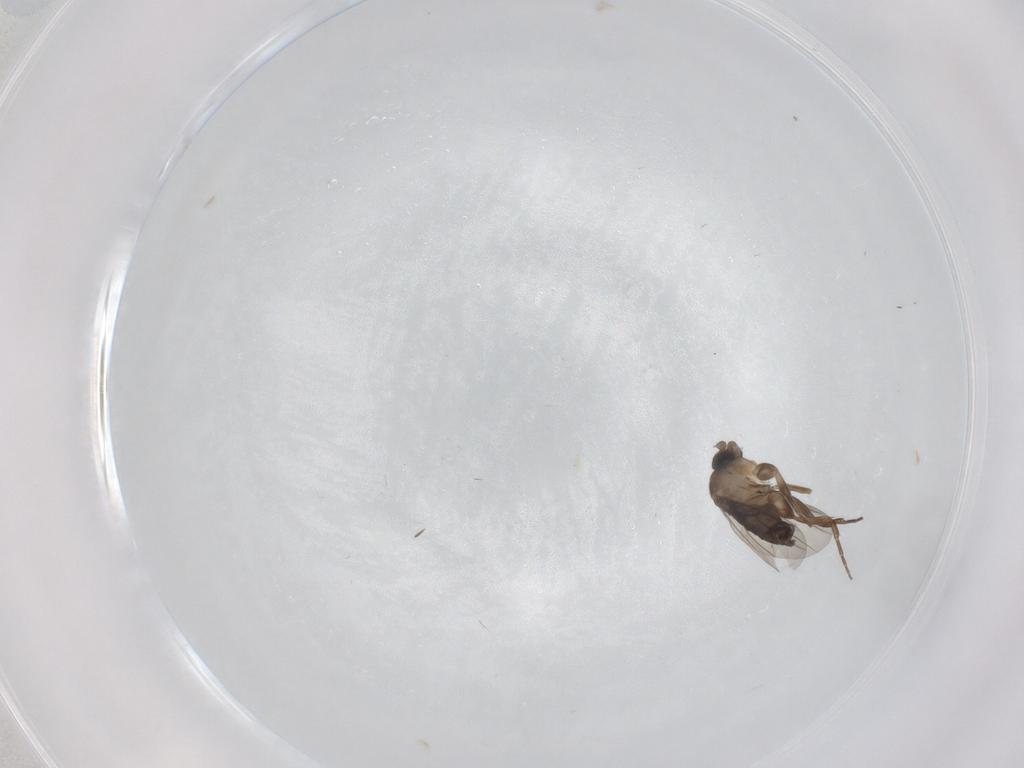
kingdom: Animalia
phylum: Arthropoda
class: Insecta
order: Diptera
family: Phoridae
